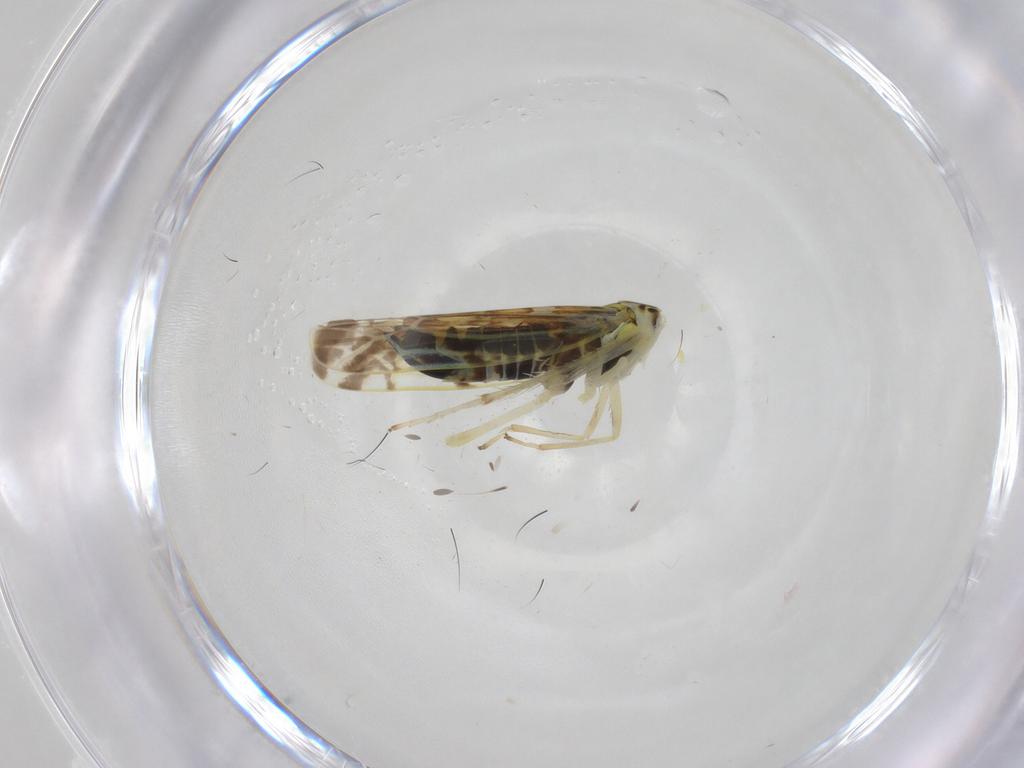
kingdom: Animalia
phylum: Arthropoda
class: Insecta
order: Hemiptera
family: Cicadellidae
